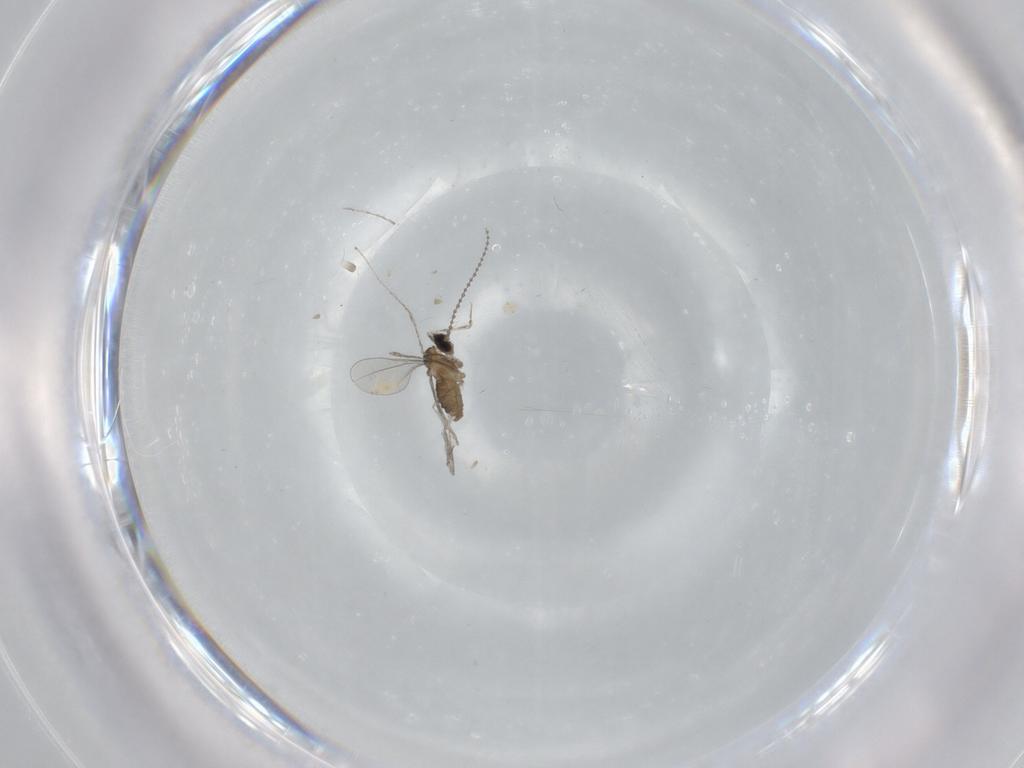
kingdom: Animalia
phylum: Arthropoda
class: Insecta
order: Diptera
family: Cecidomyiidae
